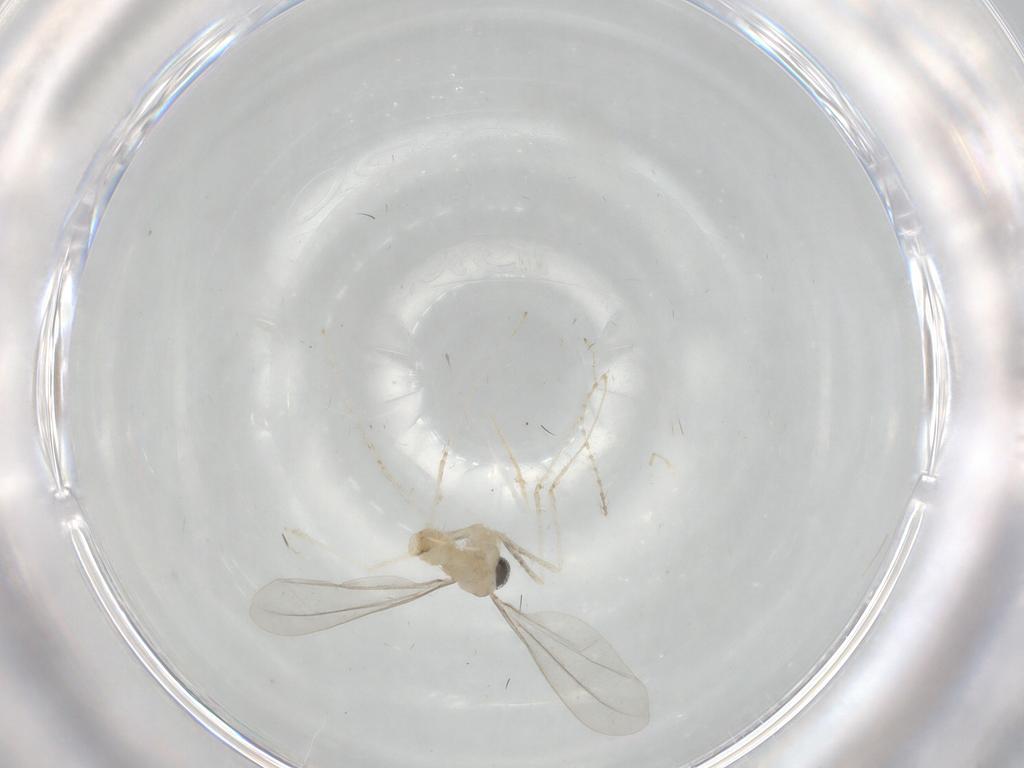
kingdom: Animalia
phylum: Arthropoda
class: Insecta
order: Diptera
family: Cecidomyiidae
